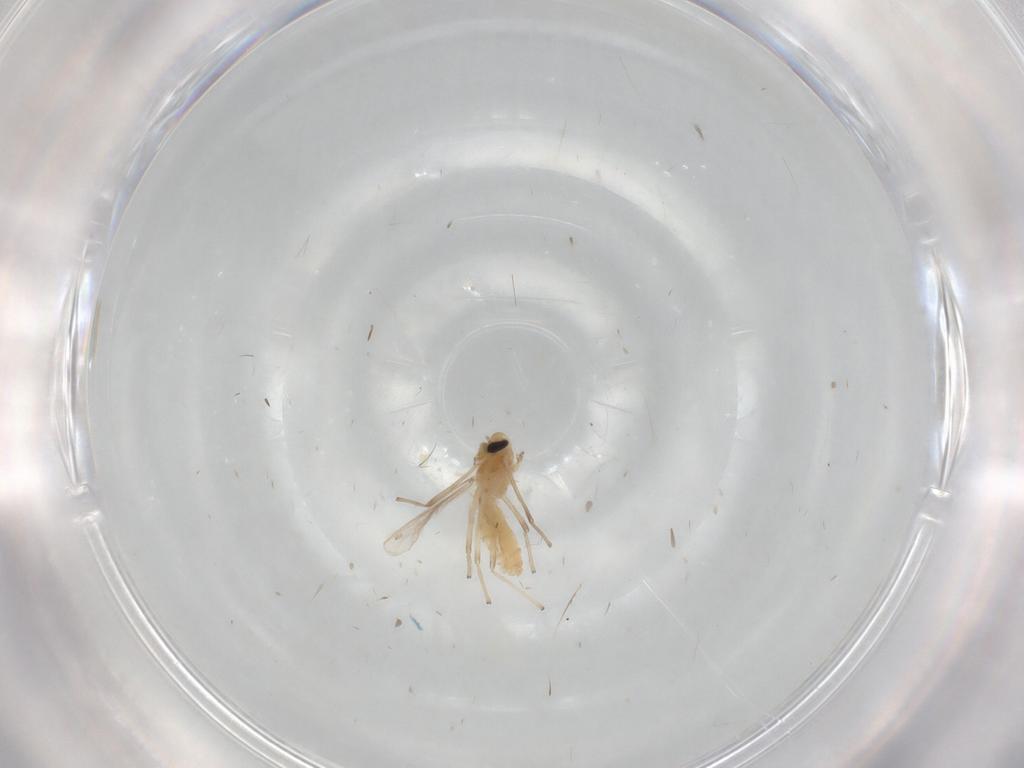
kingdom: Animalia
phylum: Arthropoda
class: Insecta
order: Diptera
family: Chironomidae
